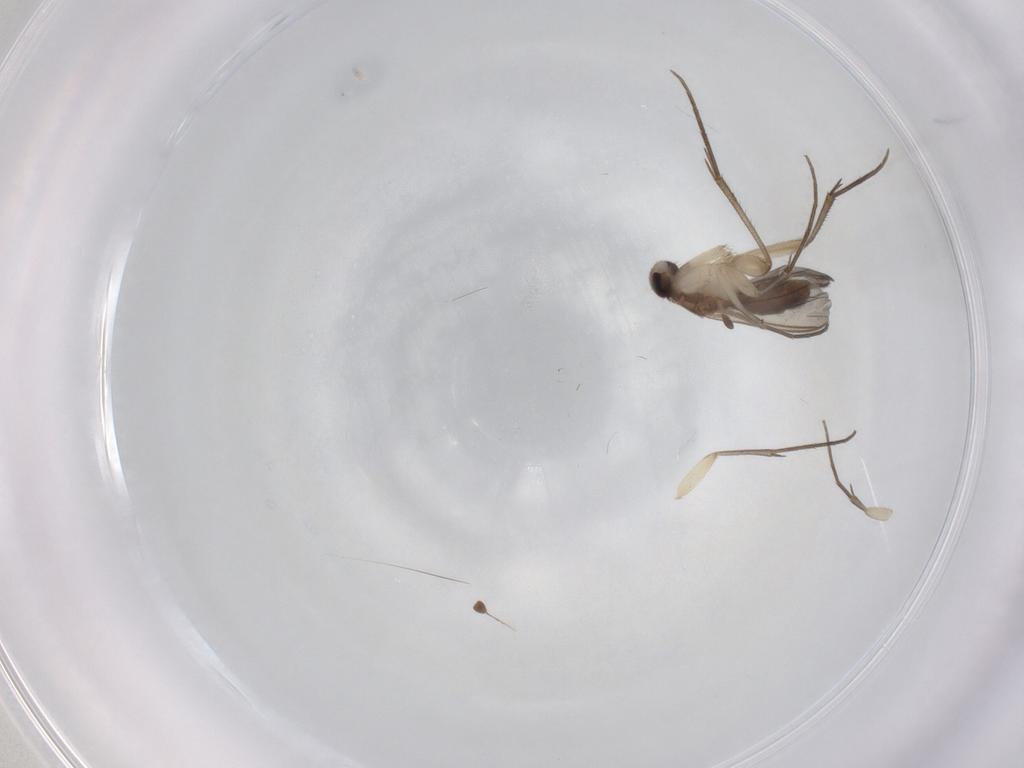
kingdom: Animalia
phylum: Arthropoda
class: Insecta
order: Diptera
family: Mycetophilidae
